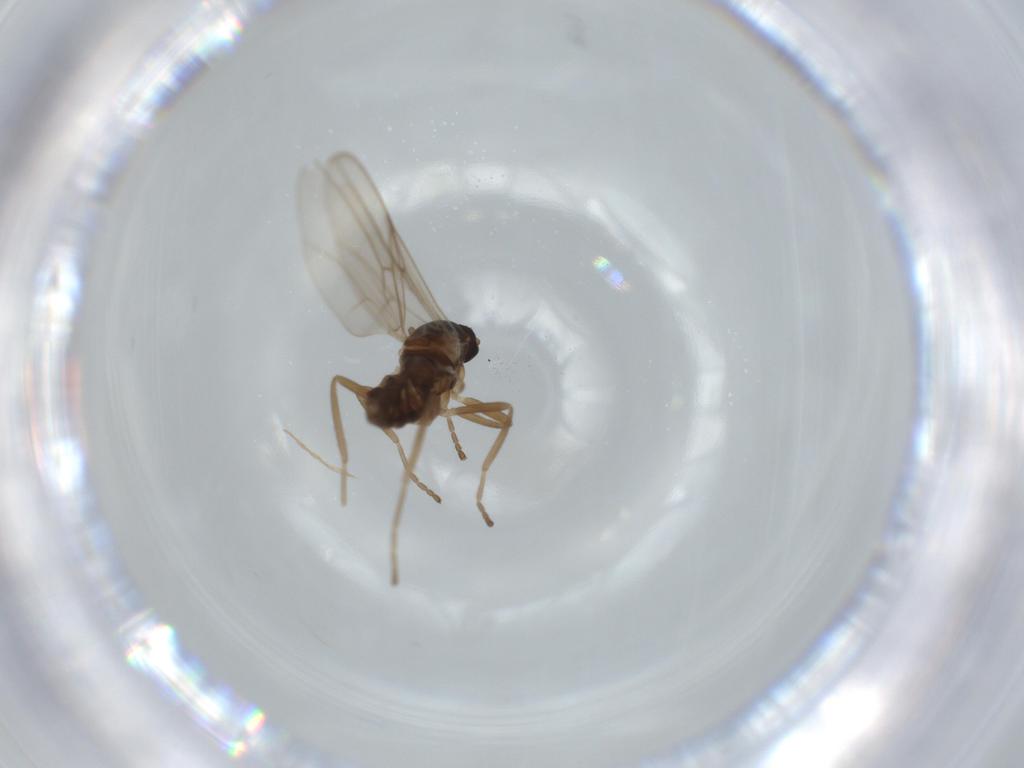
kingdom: Animalia
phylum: Arthropoda
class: Insecta
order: Diptera
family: Cecidomyiidae
